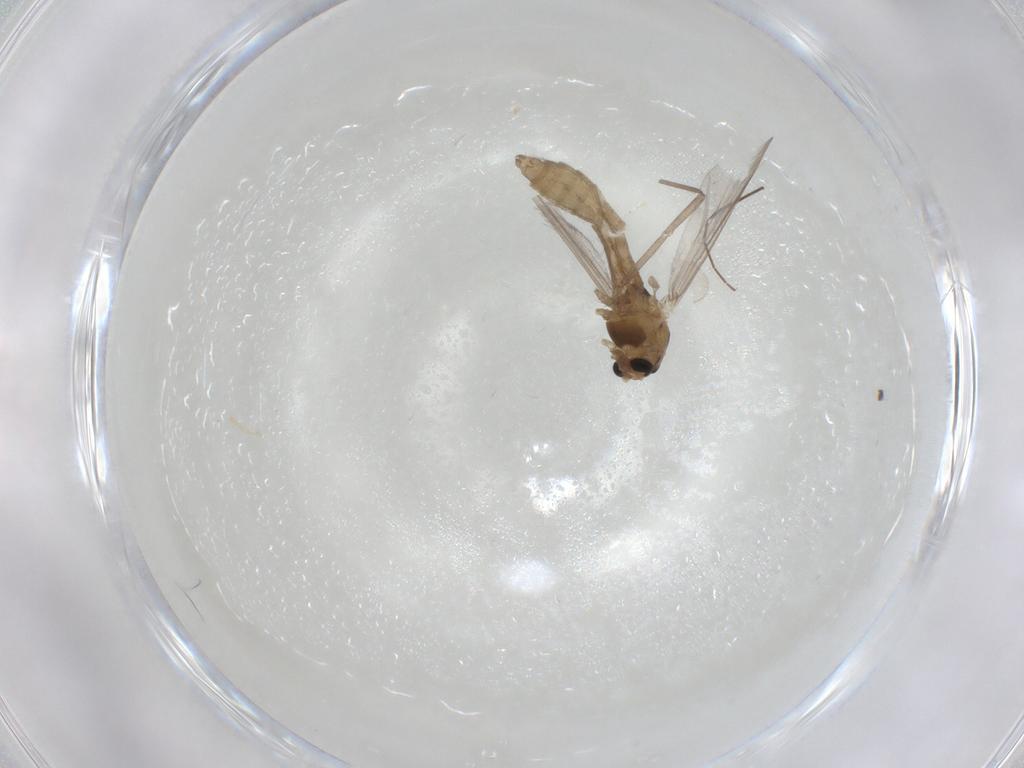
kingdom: Animalia
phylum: Arthropoda
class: Insecta
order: Diptera
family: Chironomidae
